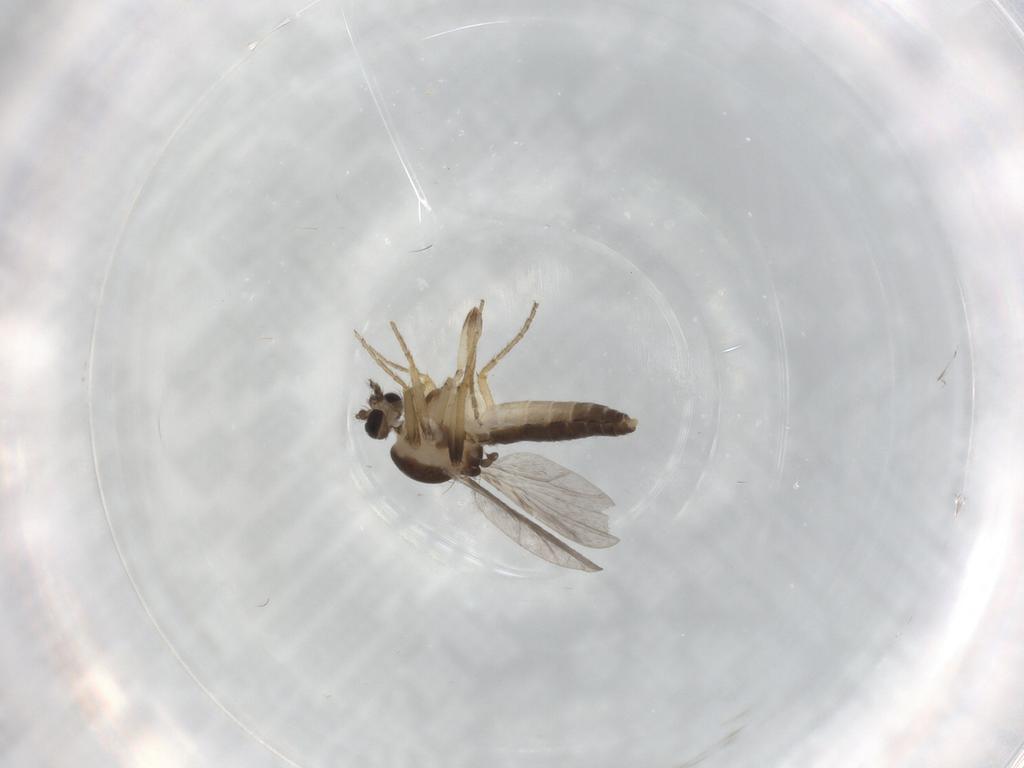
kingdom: Animalia
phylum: Arthropoda
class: Insecta
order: Diptera
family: Ceratopogonidae
